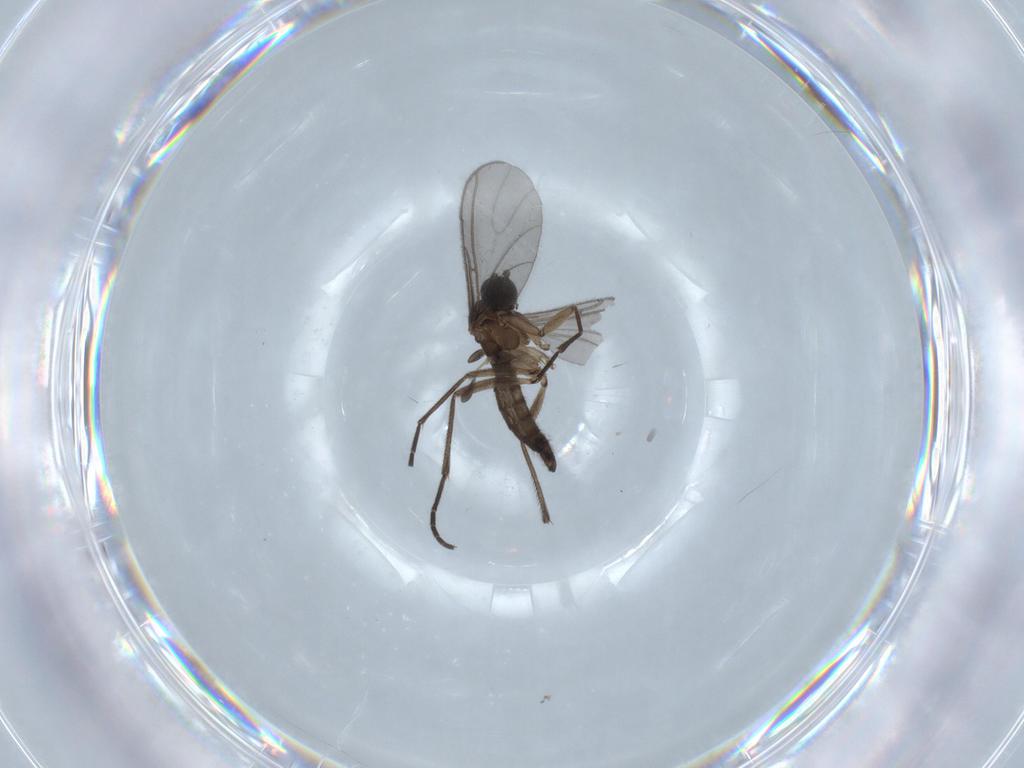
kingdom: Animalia
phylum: Arthropoda
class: Insecta
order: Diptera
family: Sciaridae
